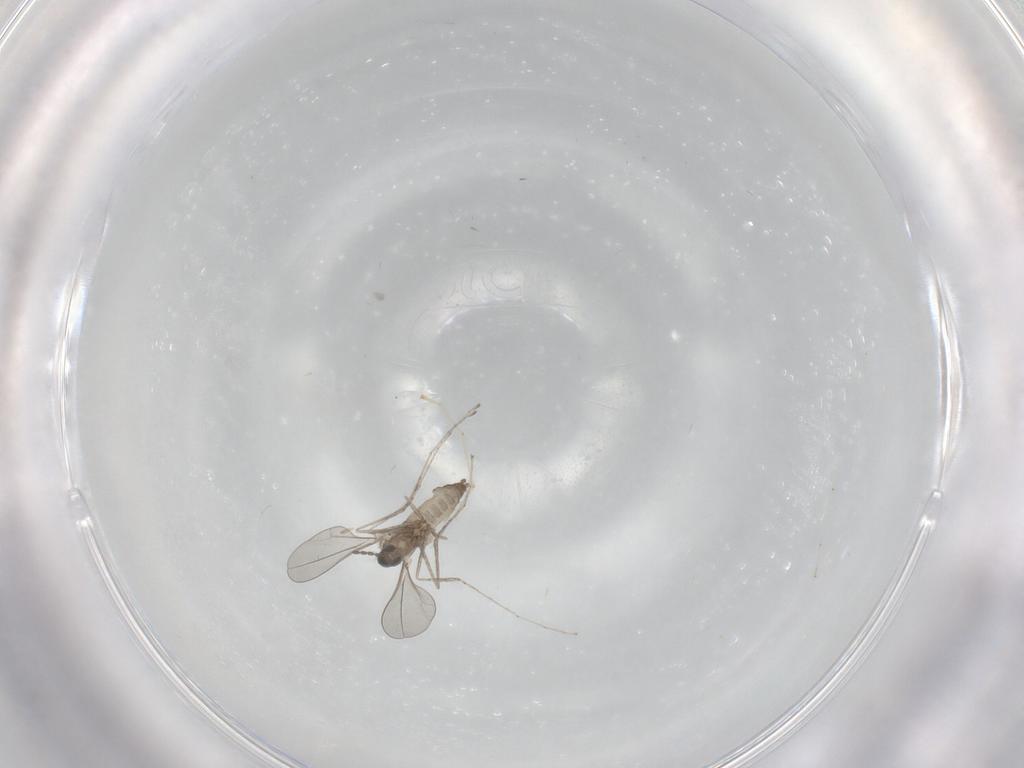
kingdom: Animalia
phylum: Arthropoda
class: Insecta
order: Diptera
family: Cecidomyiidae
